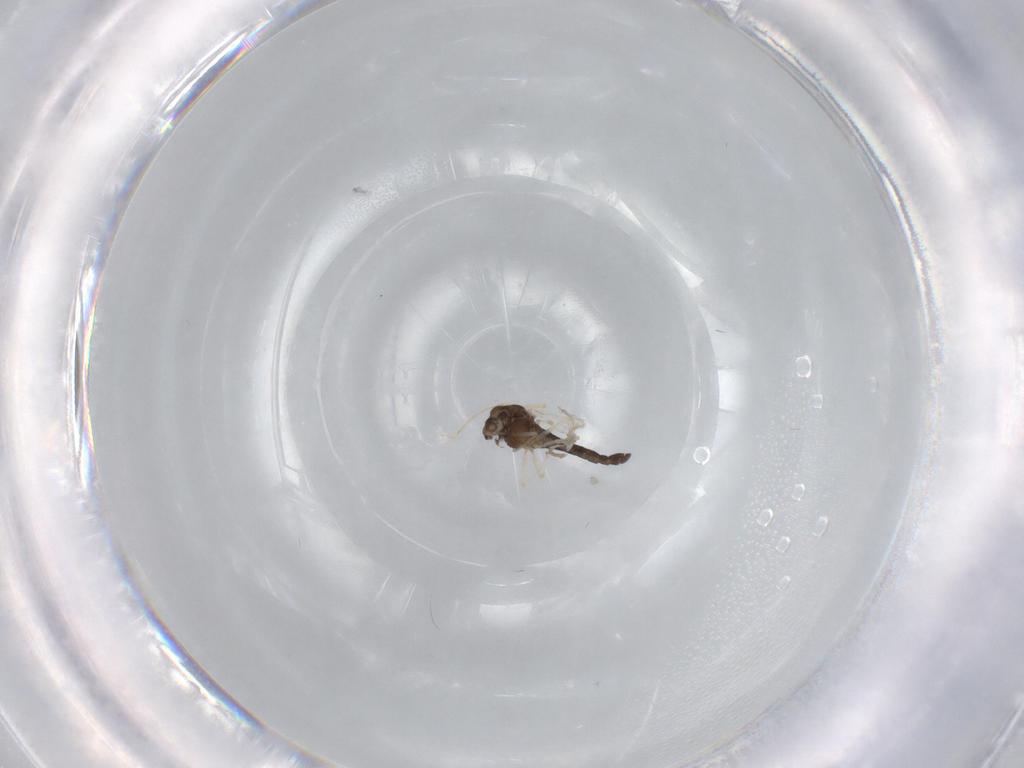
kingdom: Animalia
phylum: Arthropoda
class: Insecta
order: Diptera
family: Chironomidae
